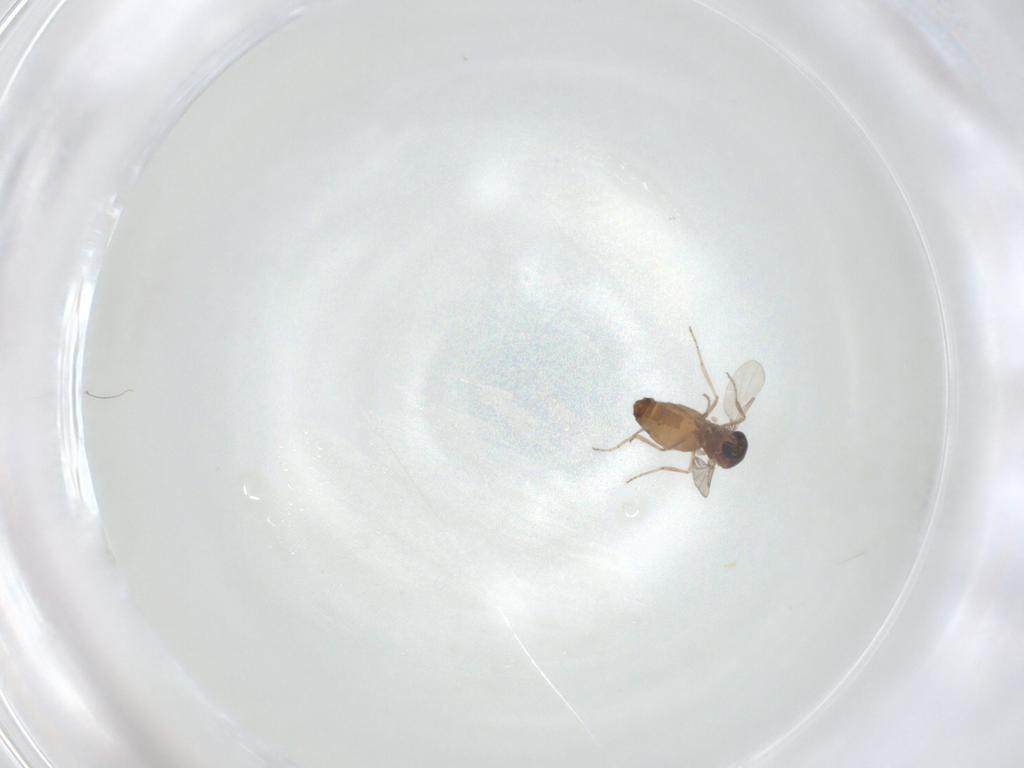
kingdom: Animalia
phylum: Arthropoda
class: Insecta
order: Diptera
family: Ceratopogonidae
